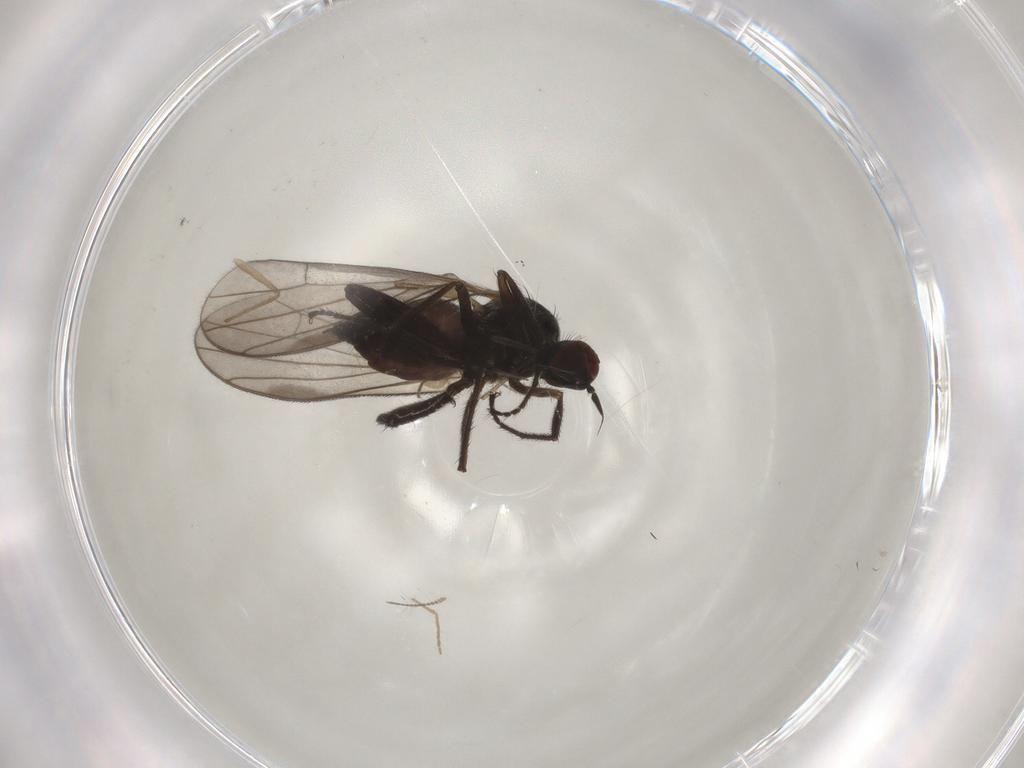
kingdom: Animalia
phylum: Arthropoda
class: Insecta
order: Diptera
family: Hybotidae
